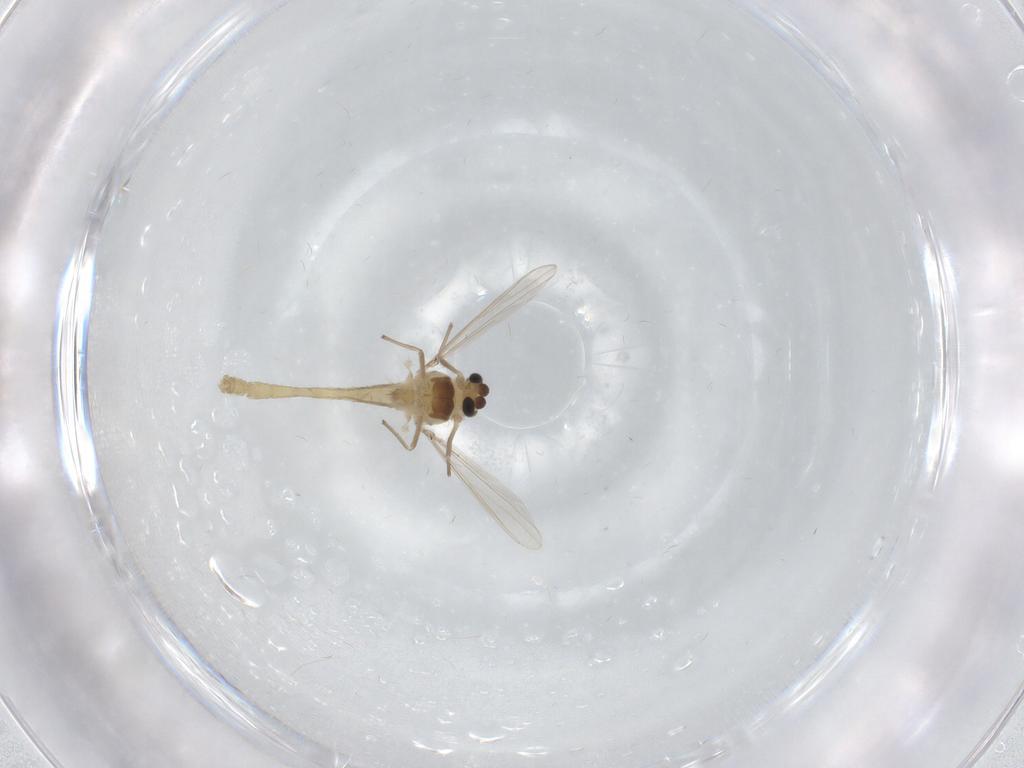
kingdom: Animalia
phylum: Arthropoda
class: Insecta
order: Diptera
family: Chironomidae
